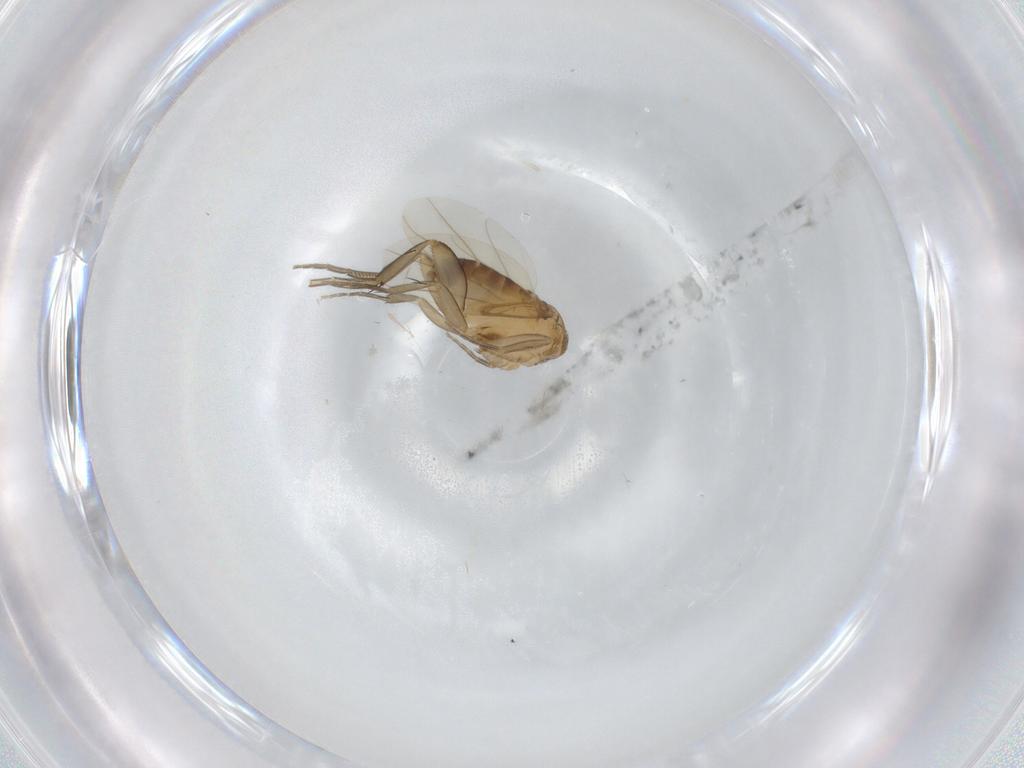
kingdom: Animalia
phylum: Arthropoda
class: Insecta
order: Diptera
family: Phoridae
